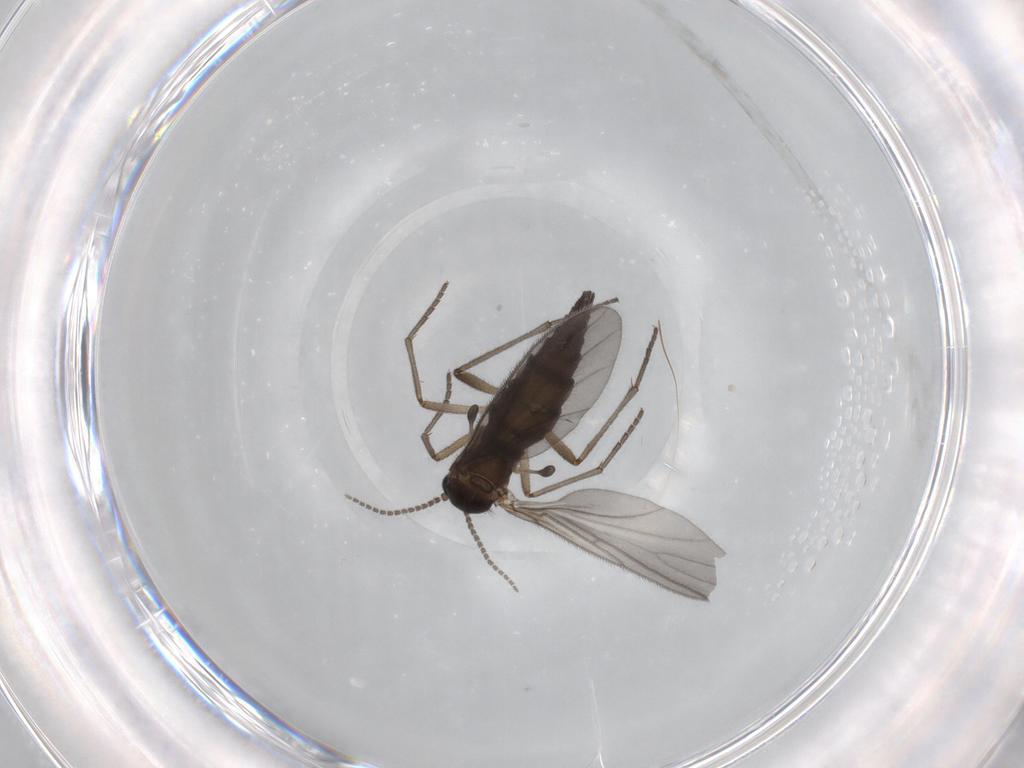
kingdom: Animalia
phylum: Arthropoda
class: Insecta
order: Diptera
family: Sciaridae
